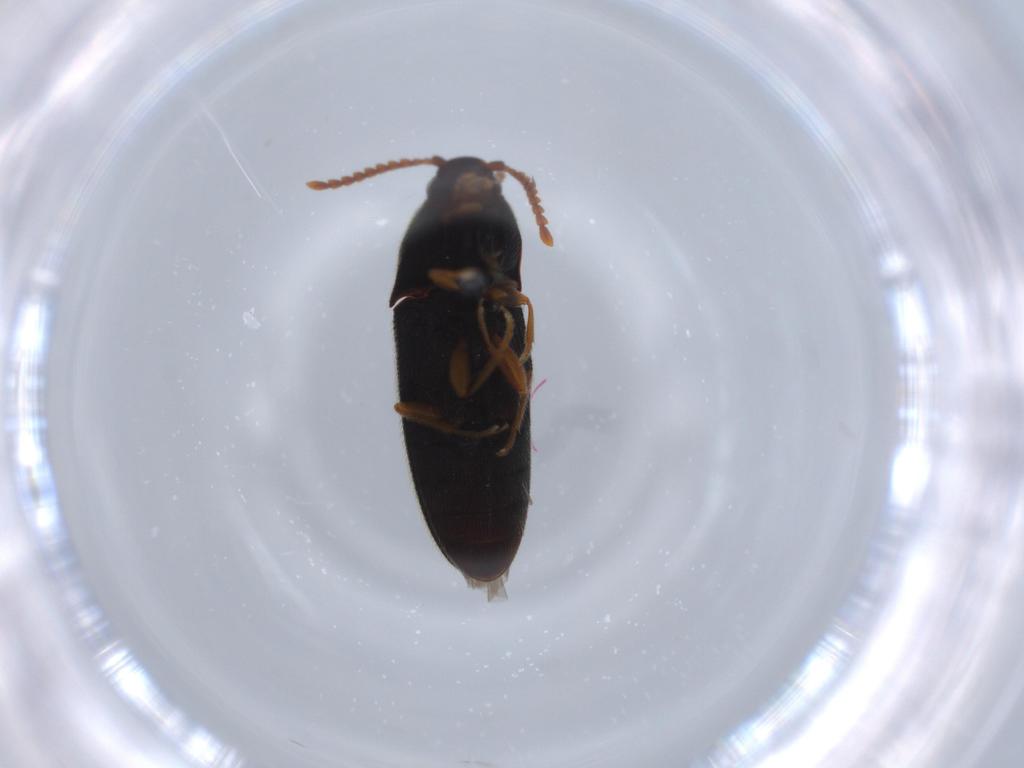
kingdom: Animalia
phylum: Arthropoda
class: Insecta
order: Coleoptera
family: Elateridae
